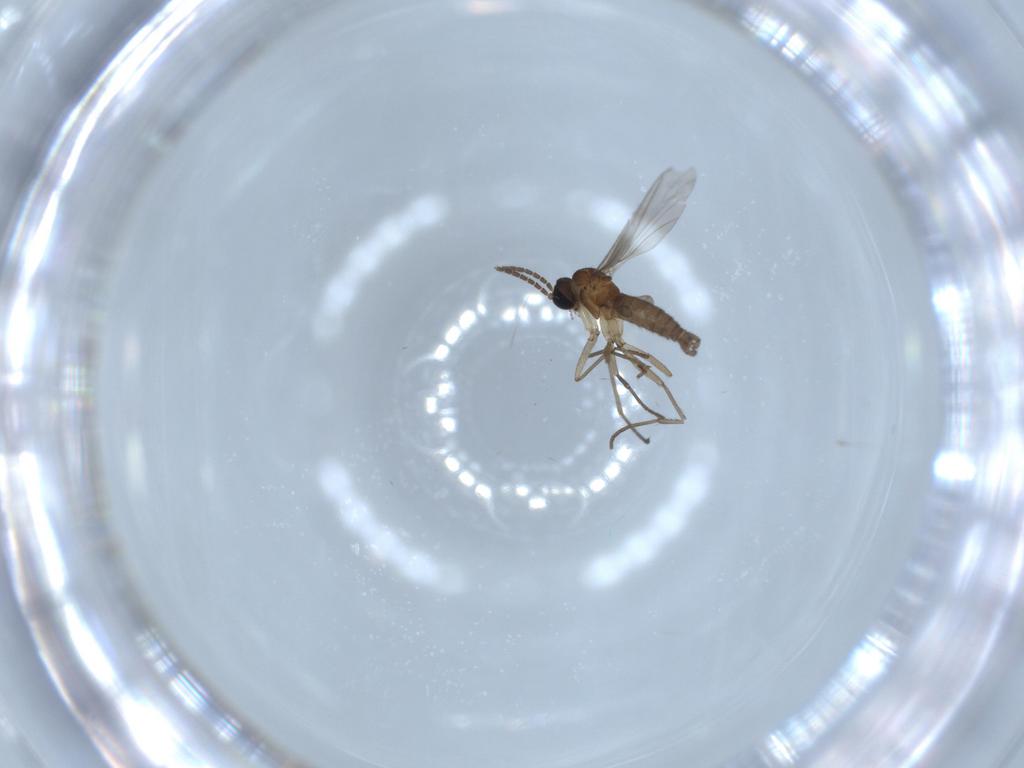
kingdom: Animalia
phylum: Arthropoda
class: Insecta
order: Diptera
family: Sciaridae
